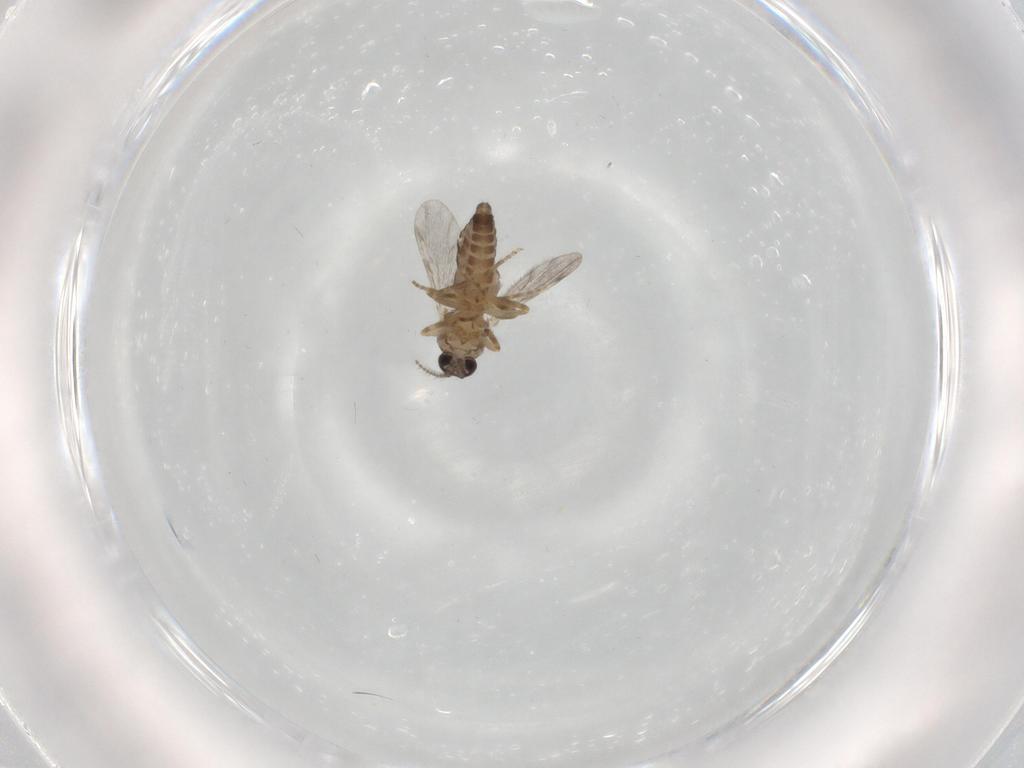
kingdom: Animalia
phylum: Arthropoda
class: Insecta
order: Diptera
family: Ceratopogonidae
